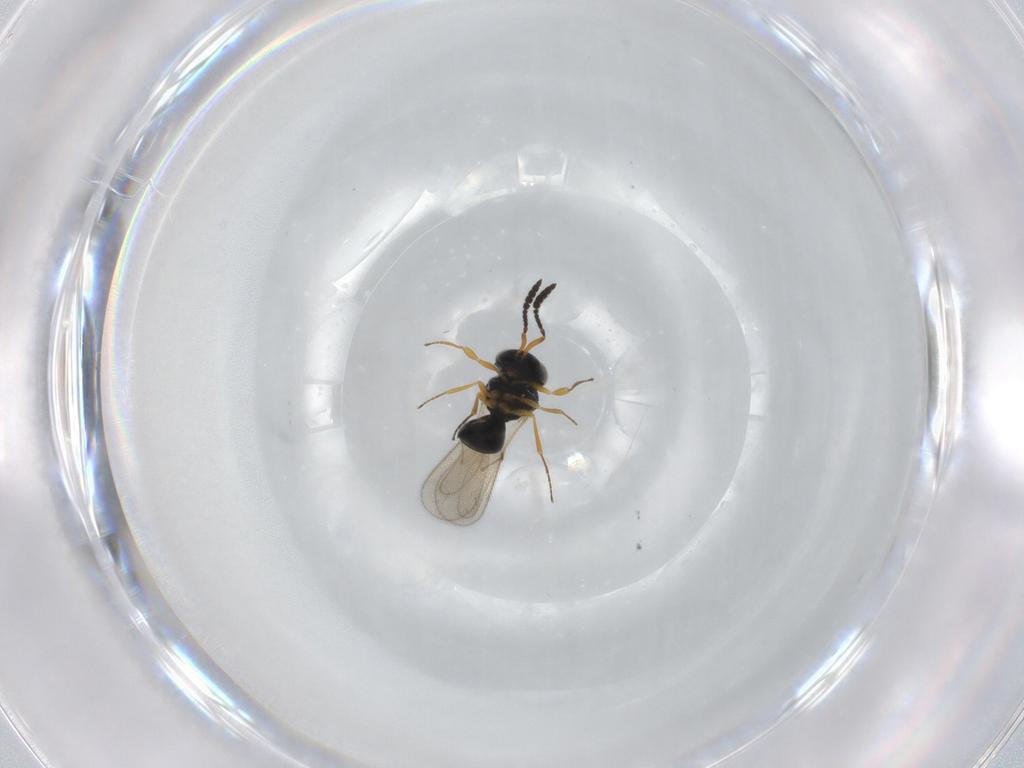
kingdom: Animalia
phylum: Arthropoda
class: Insecta
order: Hymenoptera
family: Scelionidae
